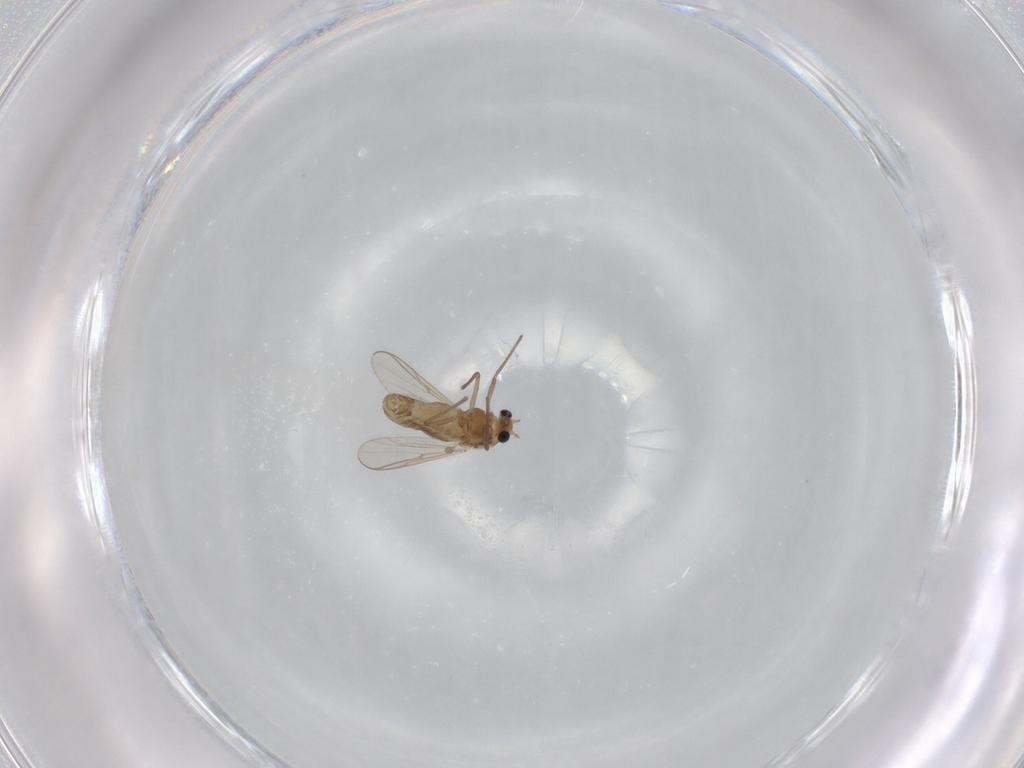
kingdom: Animalia
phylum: Arthropoda
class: Insecta
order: Diptera
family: Chironomidae
